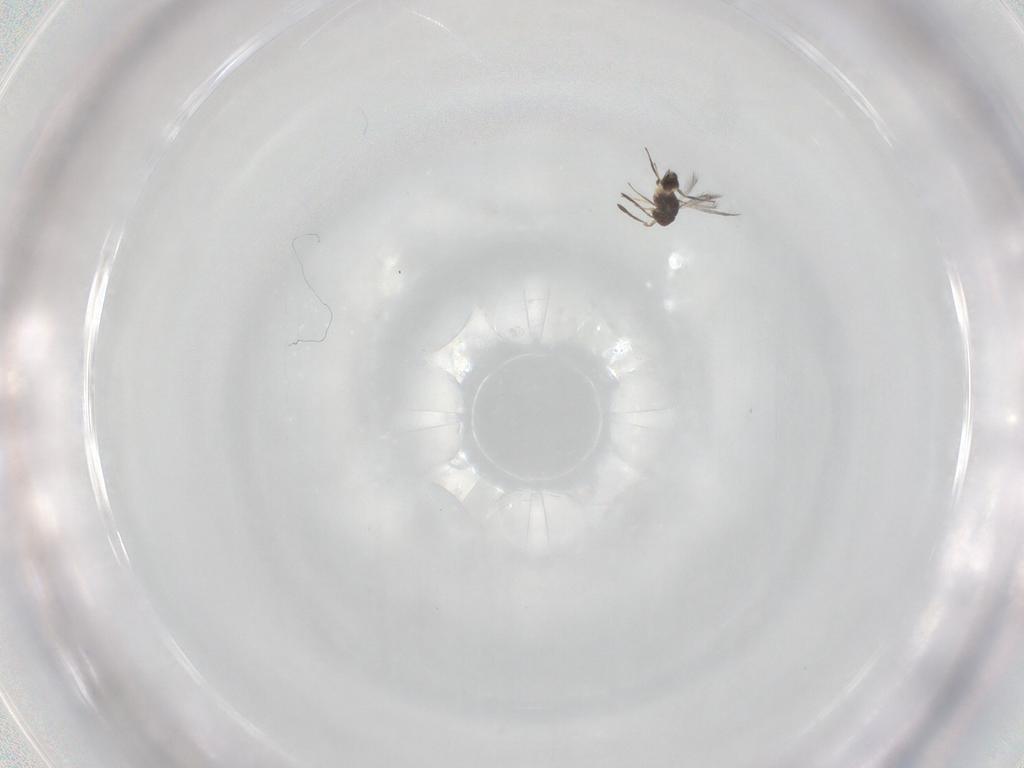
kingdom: Animalia
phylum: Arthropoda
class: Insecta
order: Hymenoptera
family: Mymaridae
